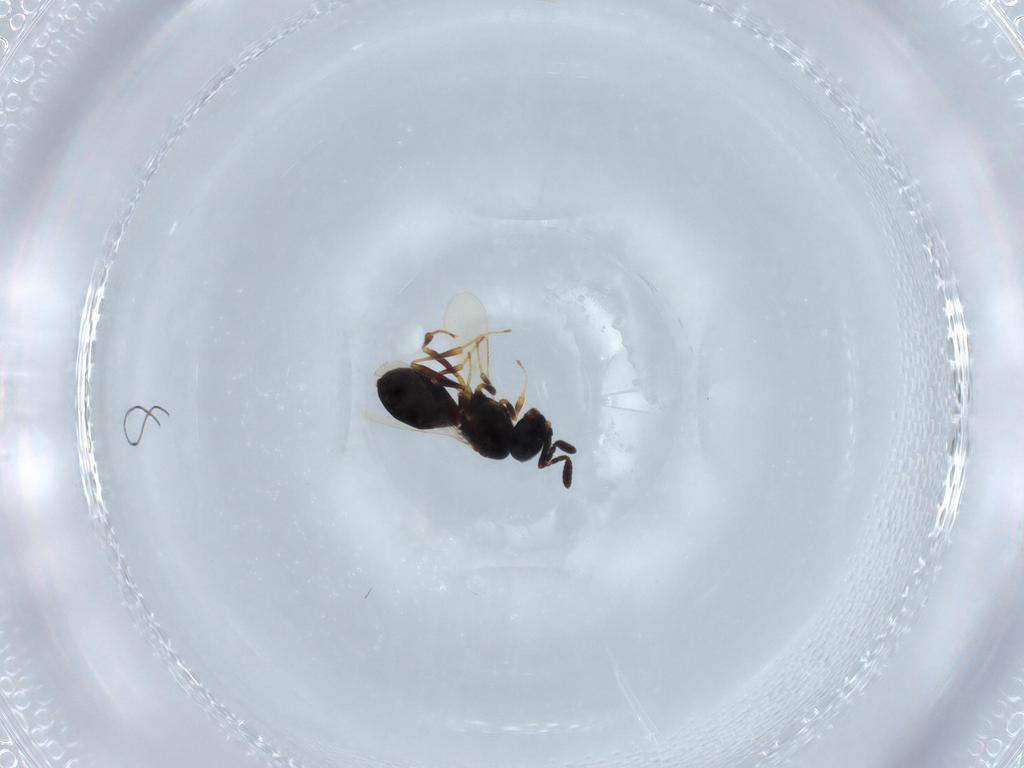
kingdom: Animalia
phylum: Arthropoda
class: Insecta
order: Hymenoptera
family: Scelionidae
